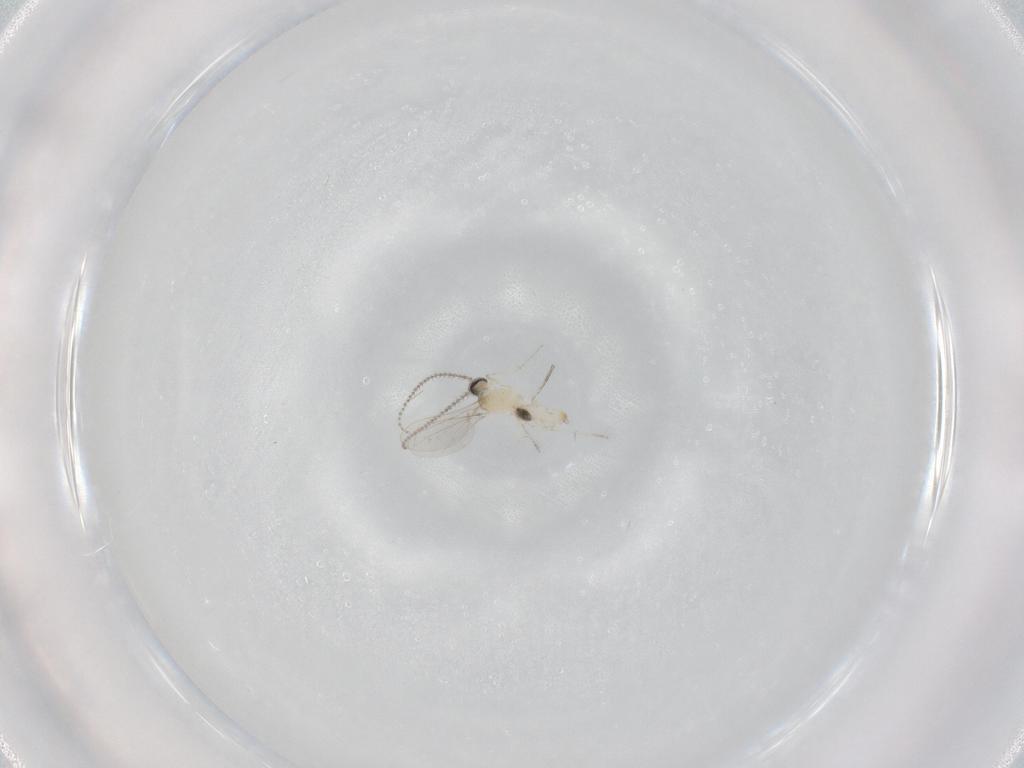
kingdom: Animalia
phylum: Arthropoda
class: Insecta
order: Diptera
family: Cecidomyiidae
